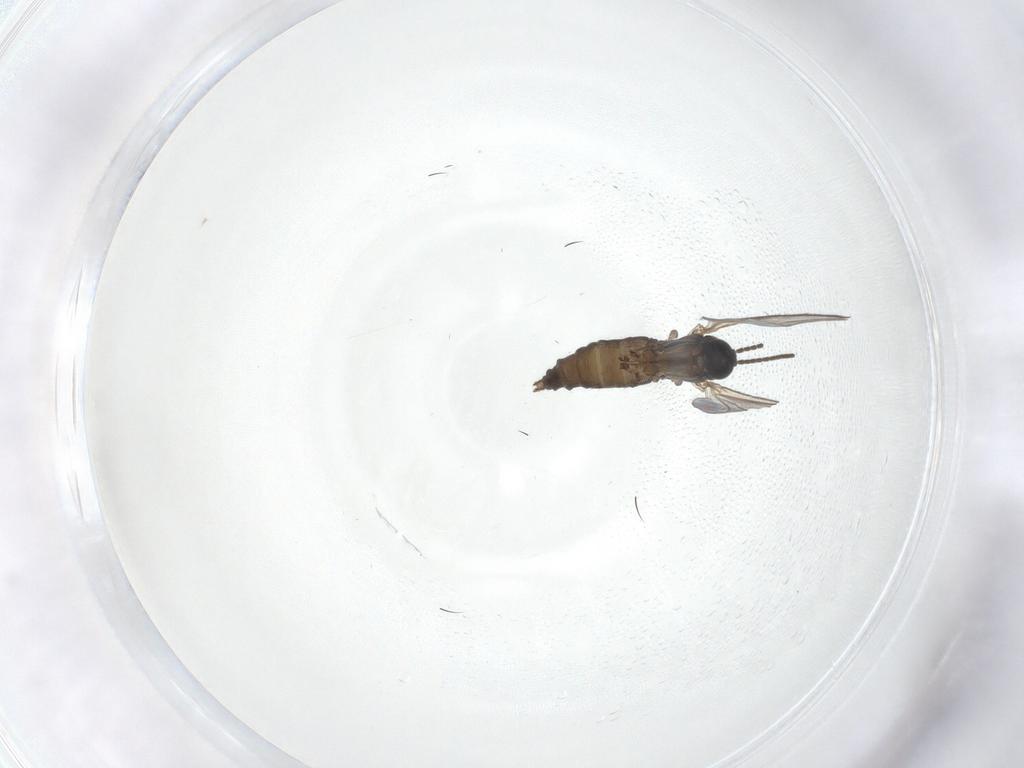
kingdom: Animalia
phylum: Arthropoda
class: Insecta
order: Diptera
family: Sciaridae
